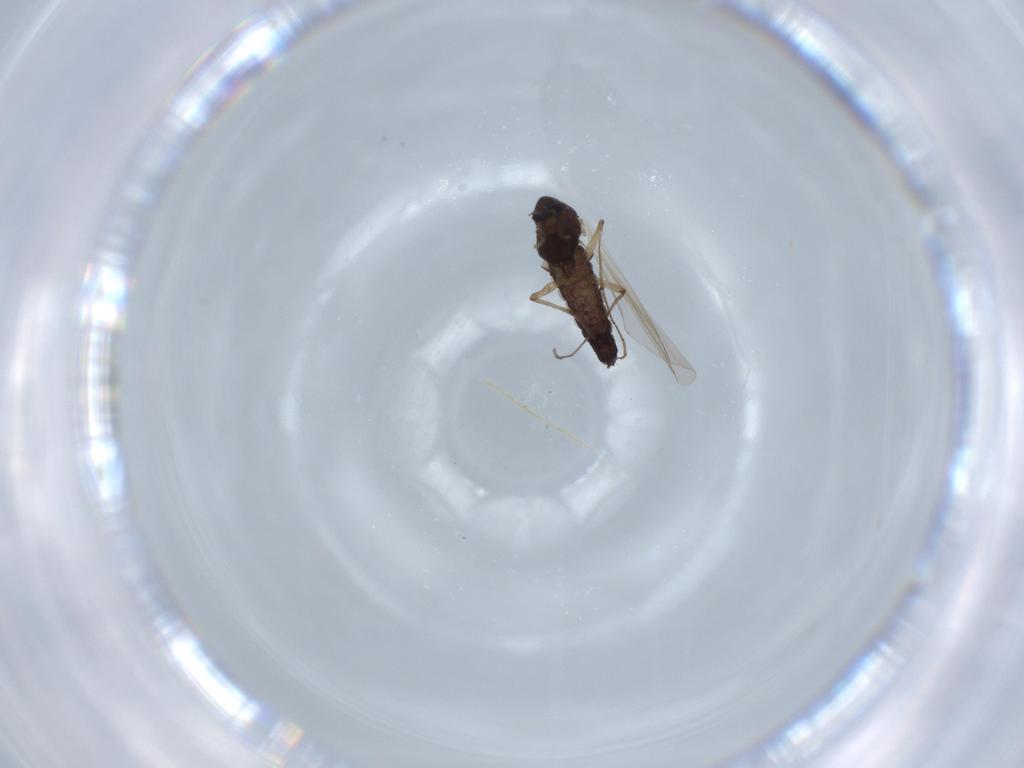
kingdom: Animalia
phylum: Arthropoda
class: Insecta
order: Diptera
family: Chironomidae
